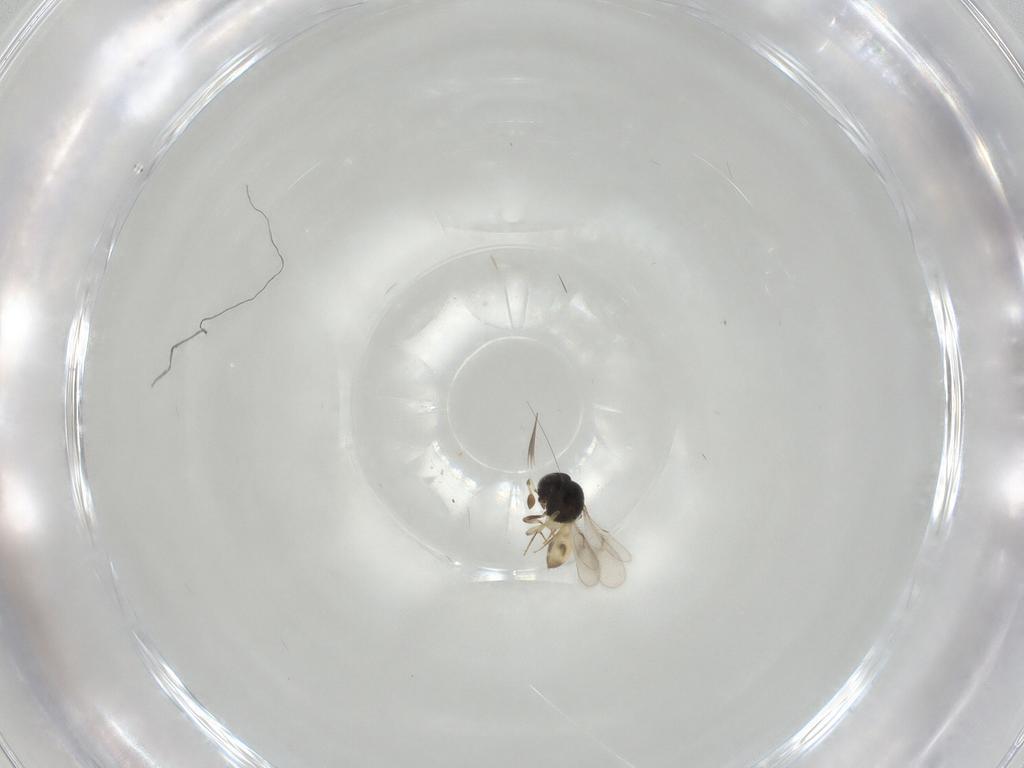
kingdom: Animalia
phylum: Arthropoda
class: Insecta
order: Hymenoptera
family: Scelionidae
